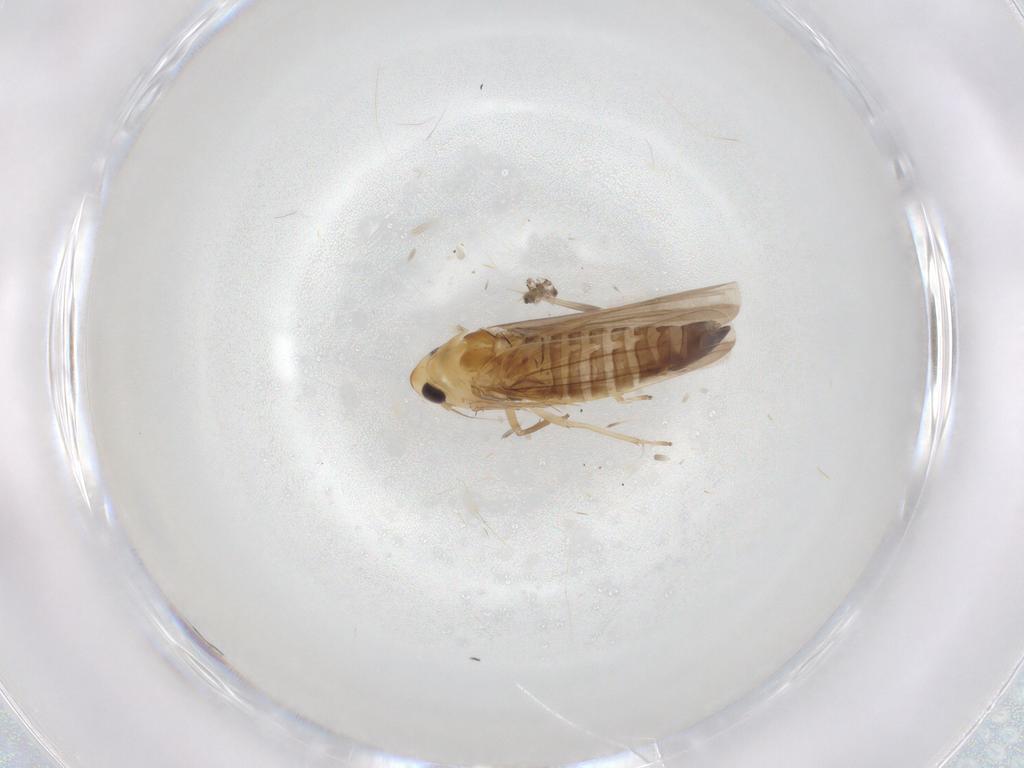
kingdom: Animalia
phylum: Arthropoda
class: Insecta
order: Hemiptera
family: Cicadellidae
